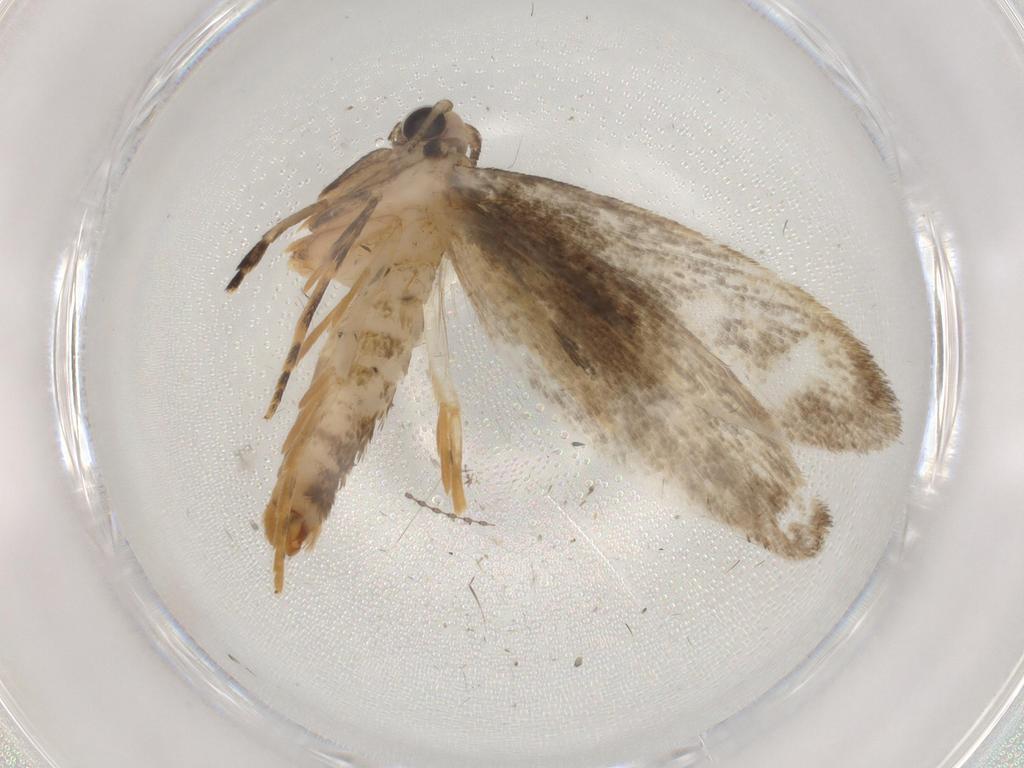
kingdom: Animalia
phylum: Arthropoda
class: Insecta
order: Lepidoptera
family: Tineidae
